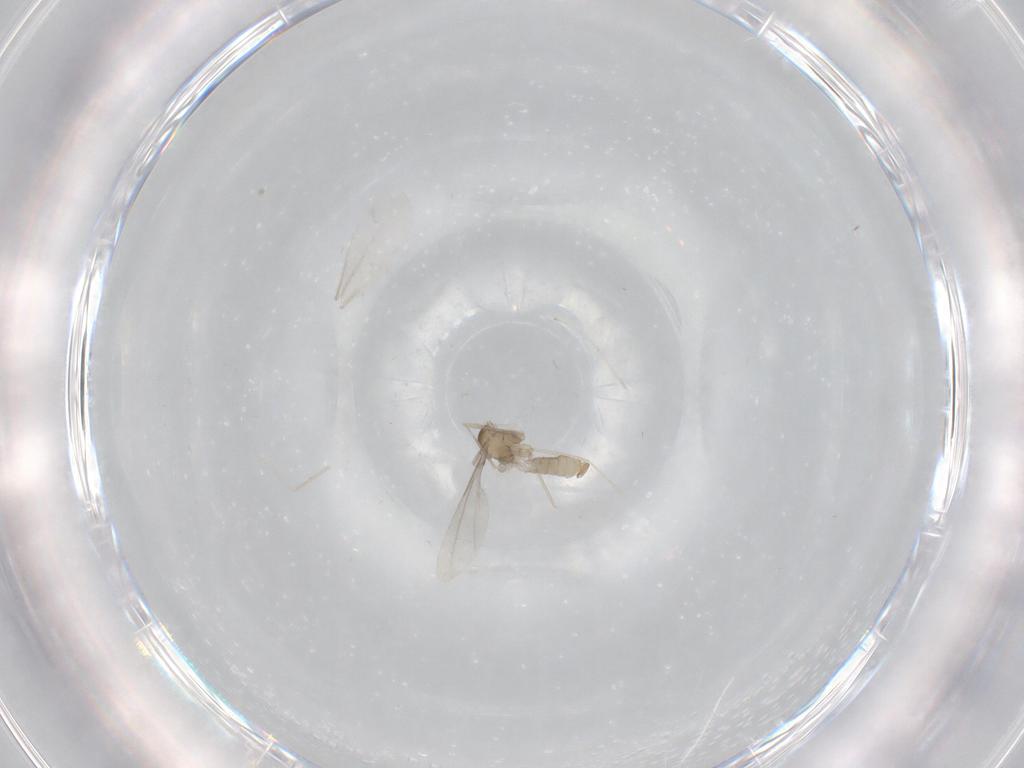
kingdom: Animalia
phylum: Arthropoda
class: Insecta
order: Diptera
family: Cecidomyiidae
